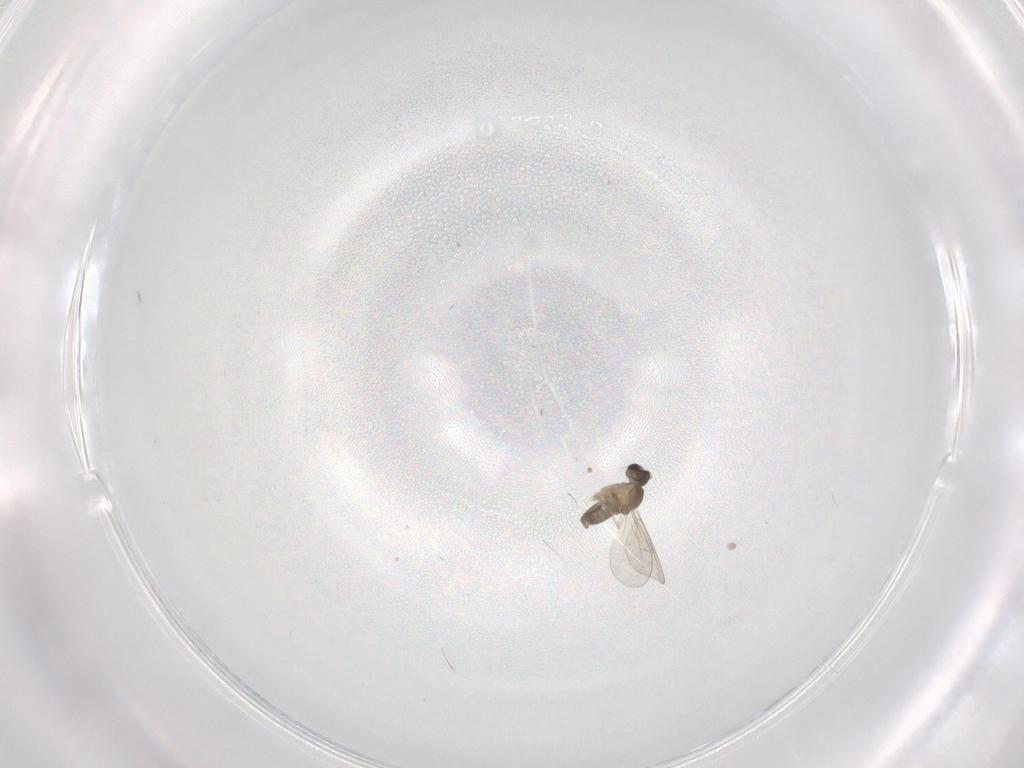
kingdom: Animalia
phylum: Arthropoda
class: Insecta
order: Diptera
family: Cecidomyiidae
